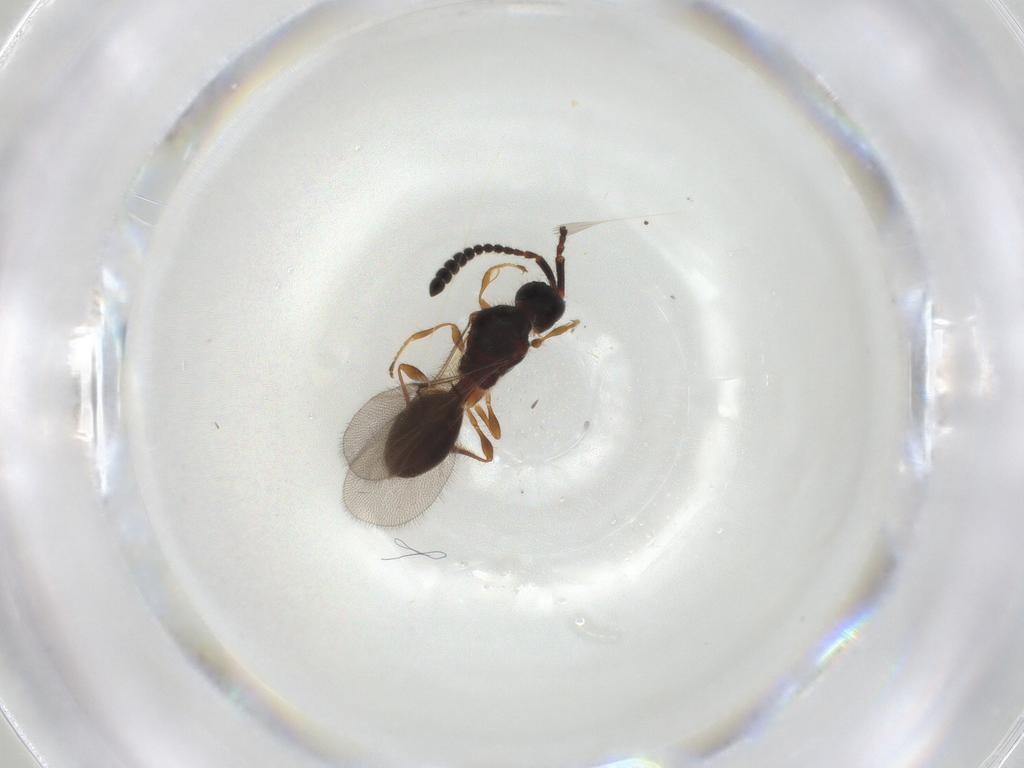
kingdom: Animalia
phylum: Arthropoda
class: Insecta
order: Hymenoptera
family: Diapriidae
